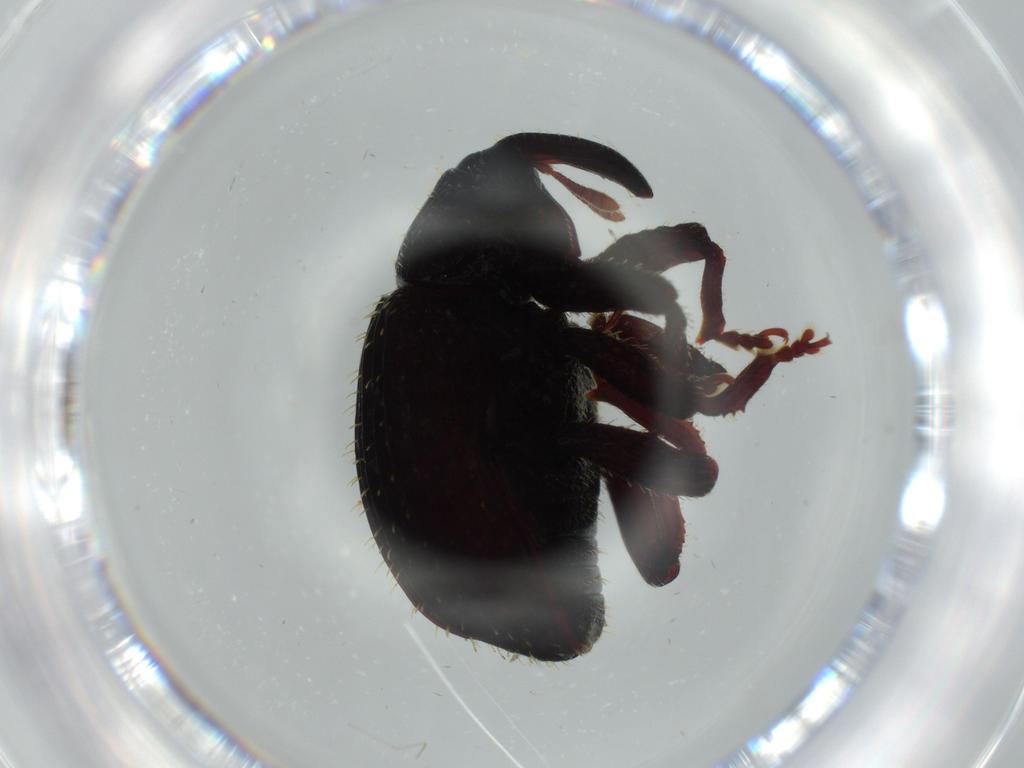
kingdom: Animalia
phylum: Arthropoda
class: Insecta
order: Coleoptera
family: Curculionidae
